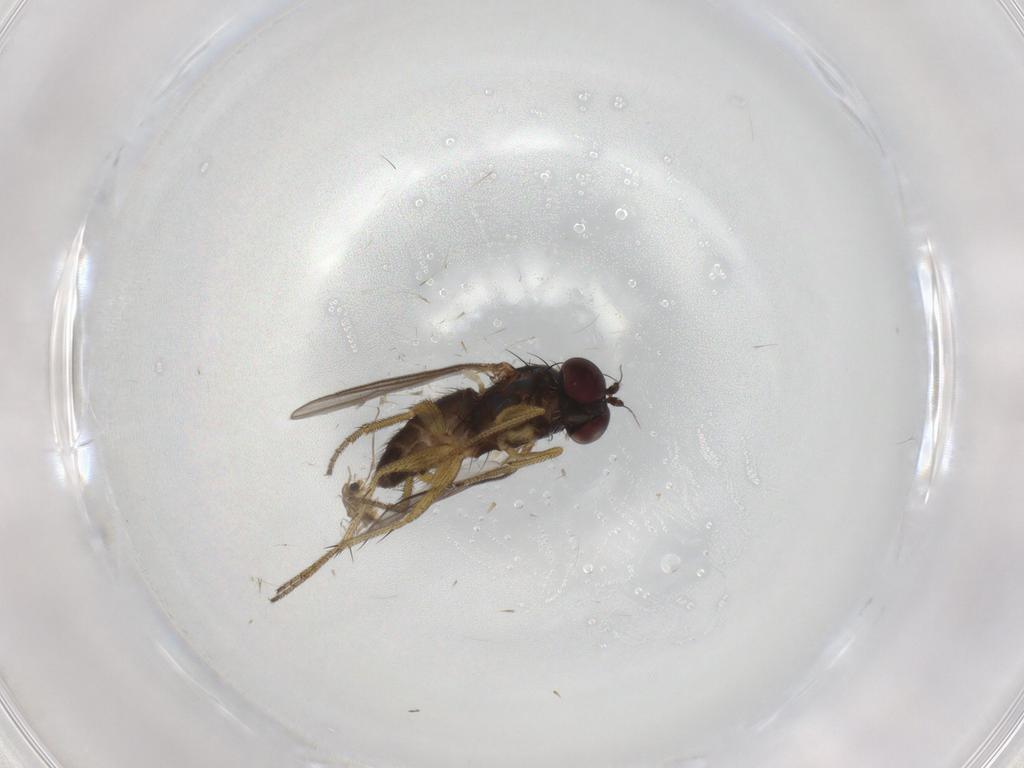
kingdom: Animalia
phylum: Arthropoda
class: Insecta
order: Diptera
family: Chironomidae
